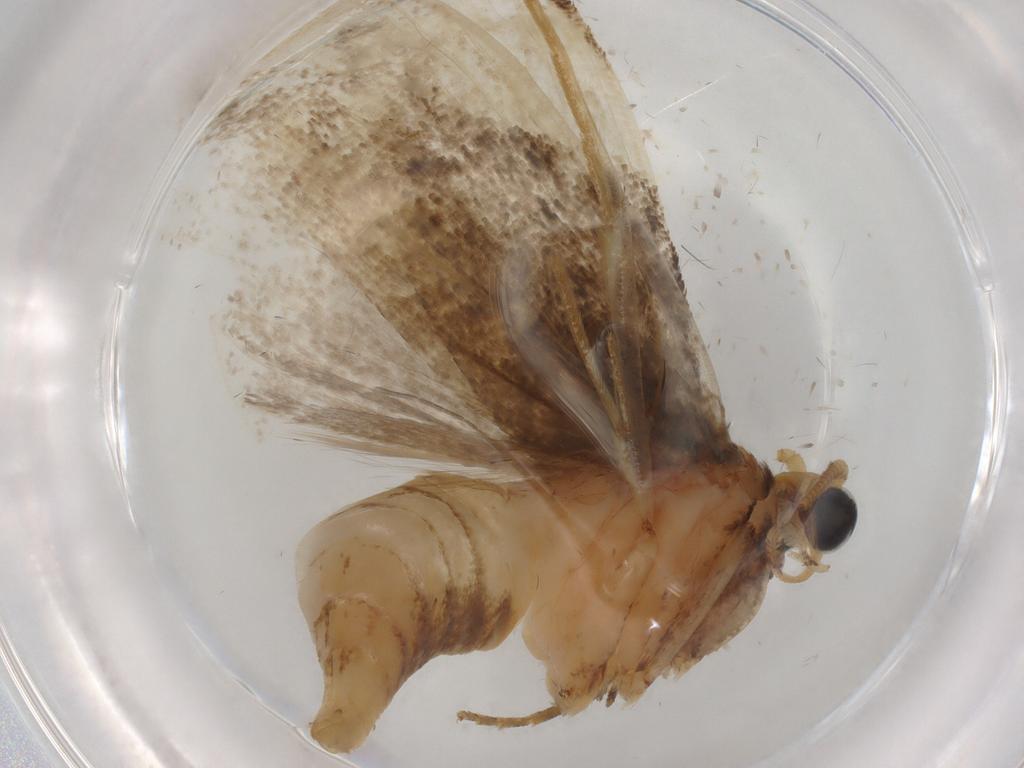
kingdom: Animalia
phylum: Arthropoda
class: Insecta
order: Lepidoptera
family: Tineidae
